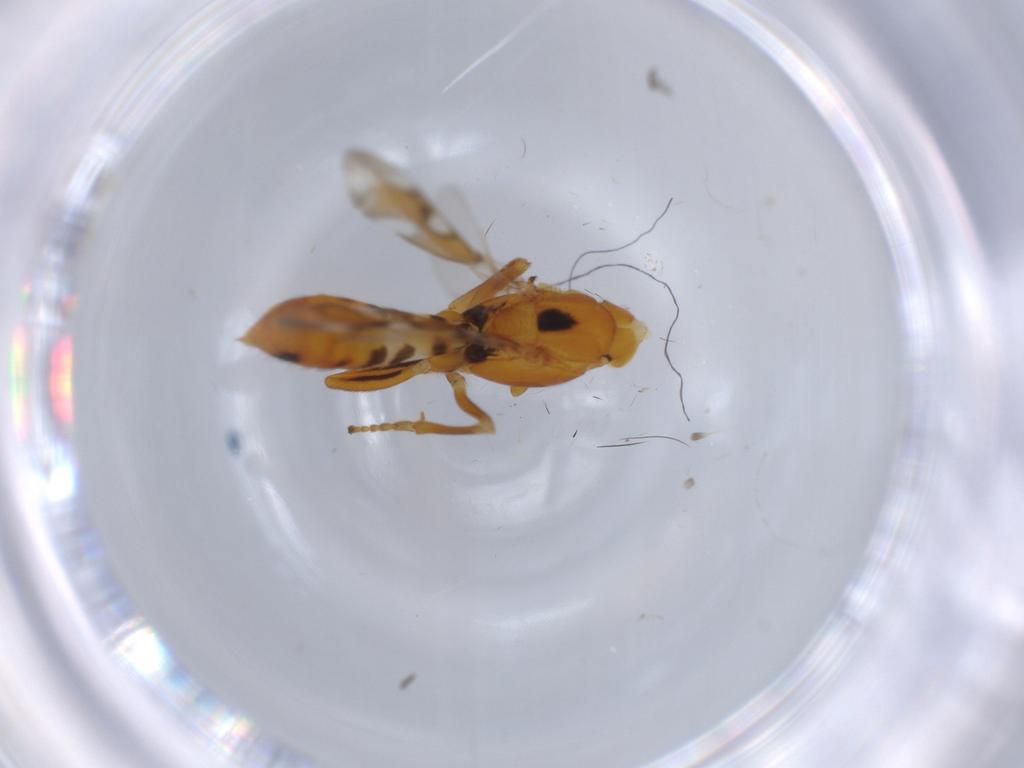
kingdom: Animalia
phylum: Arthropoda
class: Insecta
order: Hymenoptera
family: Eupelmidae
